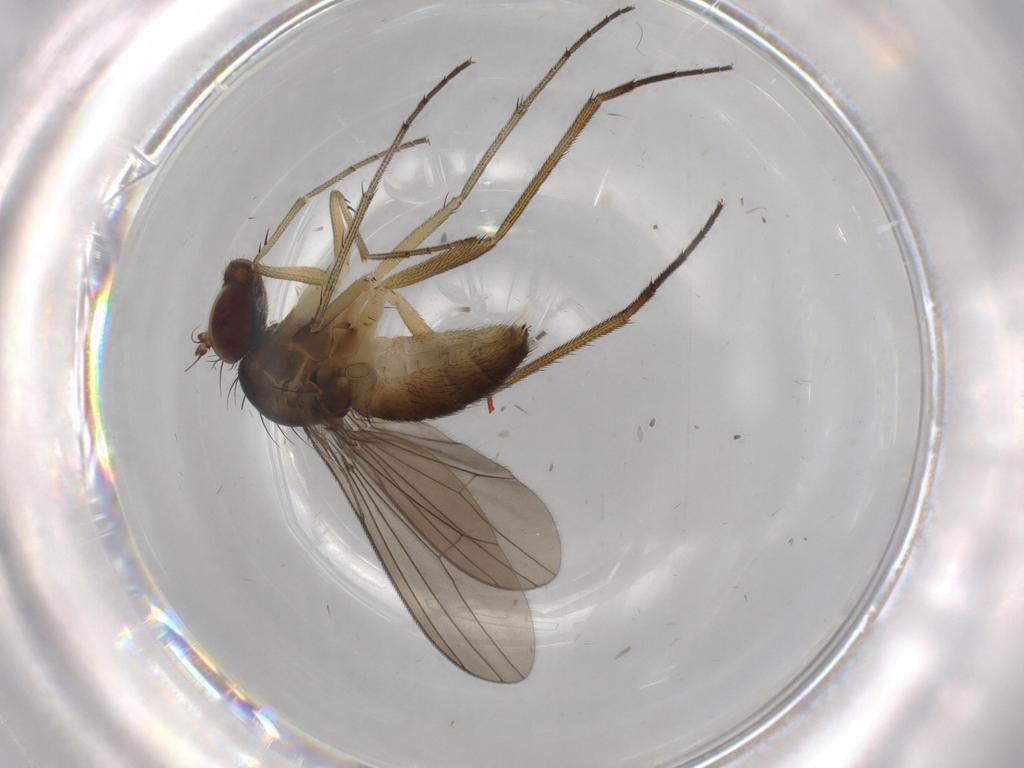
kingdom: Animalia
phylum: Arthropoda
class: Insecta
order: Diptera
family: Dolichopodidae
